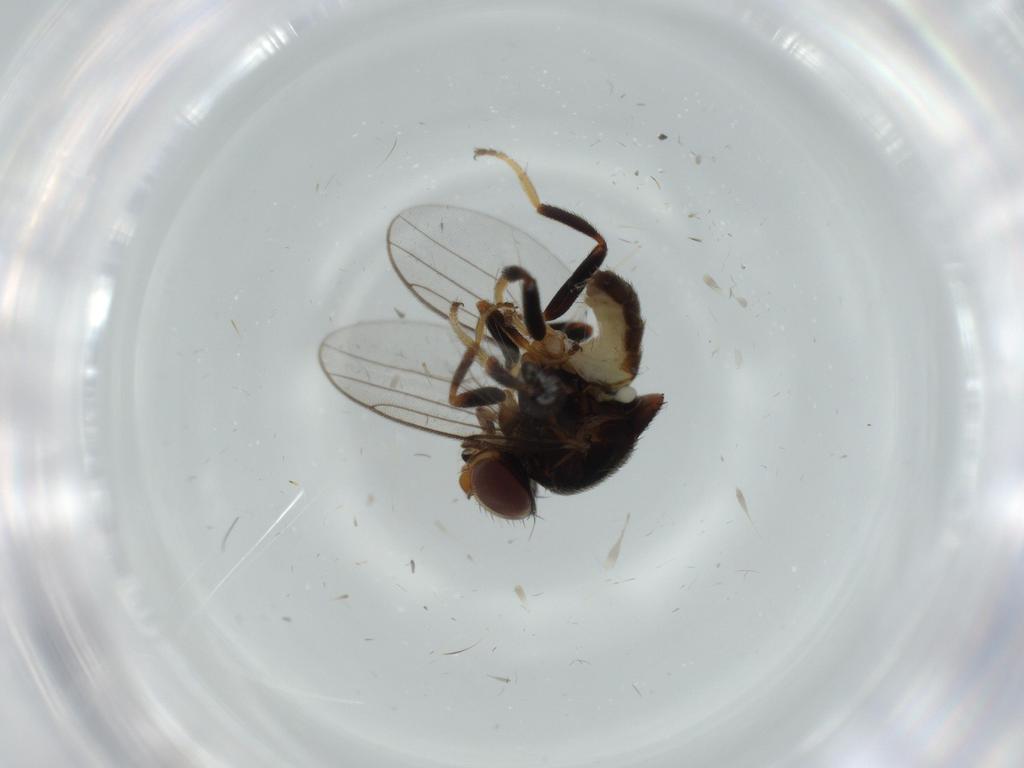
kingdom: Animalia
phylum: Arthropoda
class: Insecta
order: Diptera
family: Chloropidae
